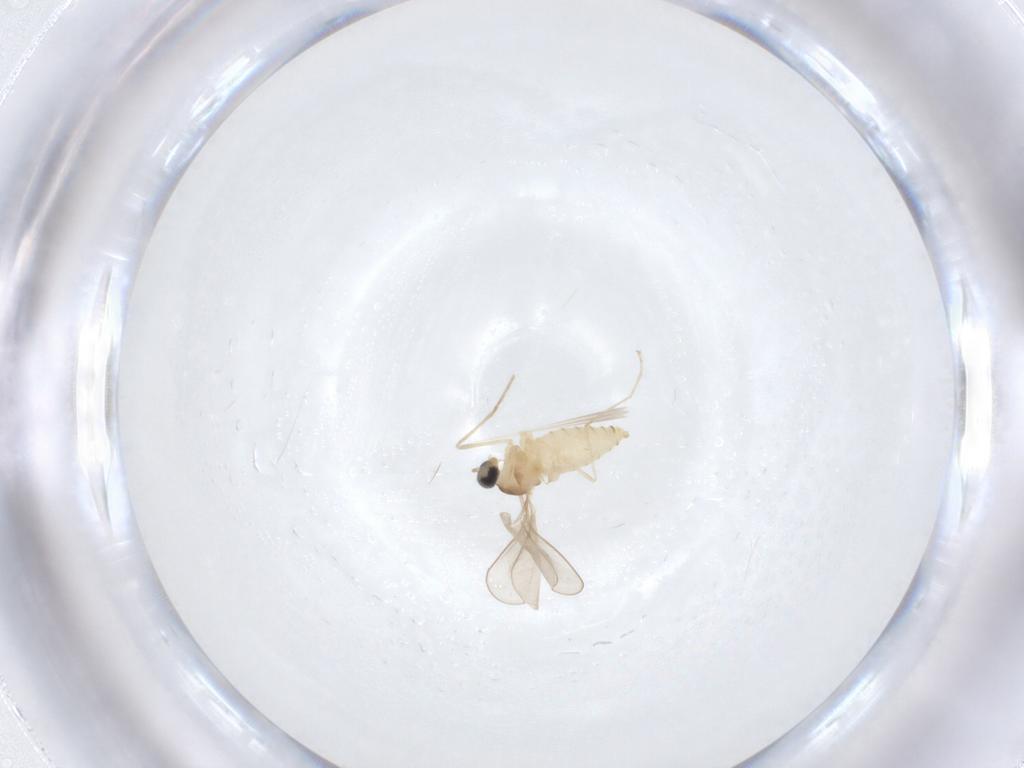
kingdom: Animalia
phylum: Arthropoda
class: Insecta
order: Diptera
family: Cecidomyiidae
